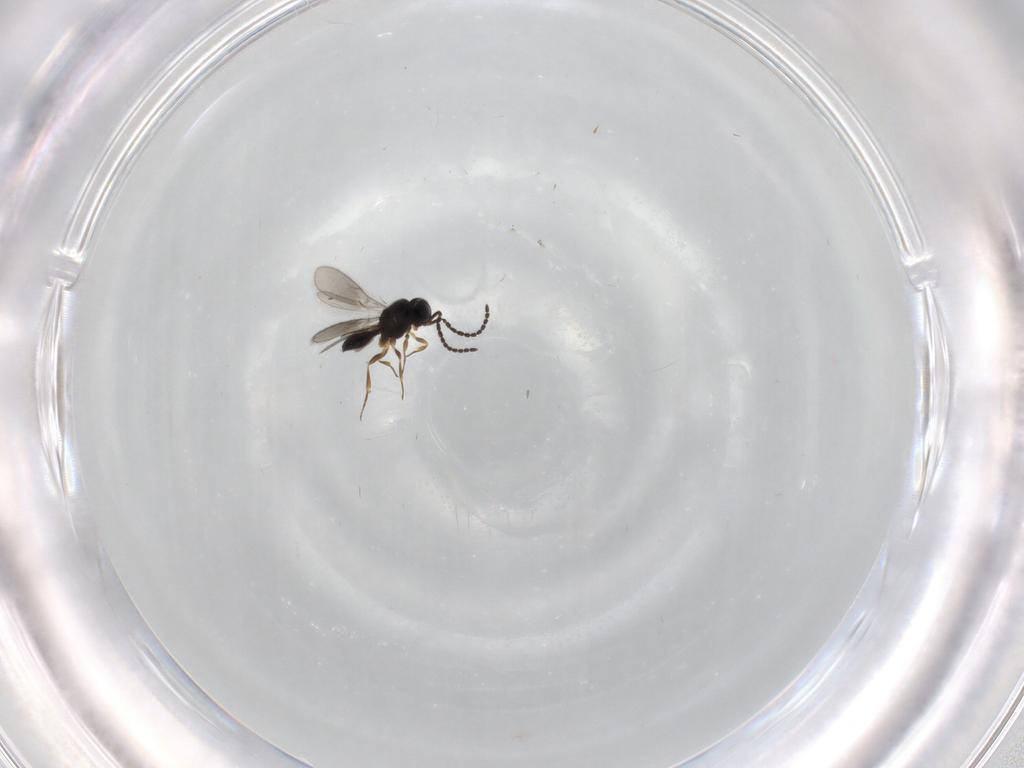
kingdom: Animalia
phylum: Arthropoda
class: Insecta
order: Hymenoptera
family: Scelionidae
